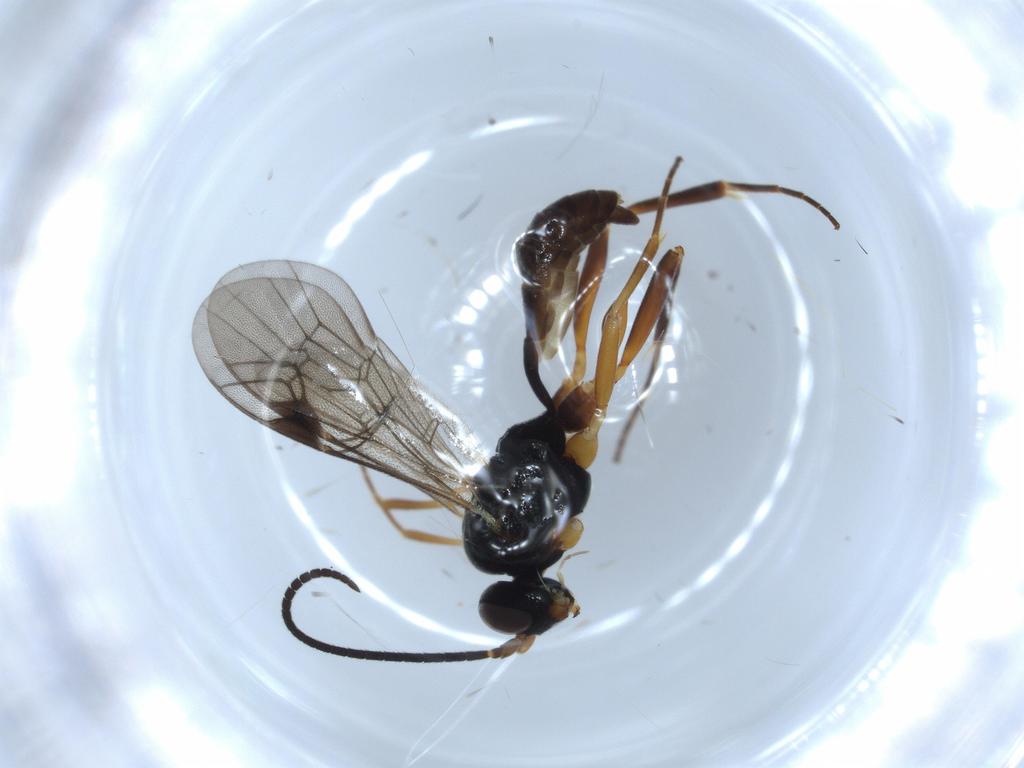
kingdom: Animalia
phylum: Arthropoda
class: Insecta
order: Hymenoptera
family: Ichneumonidae
